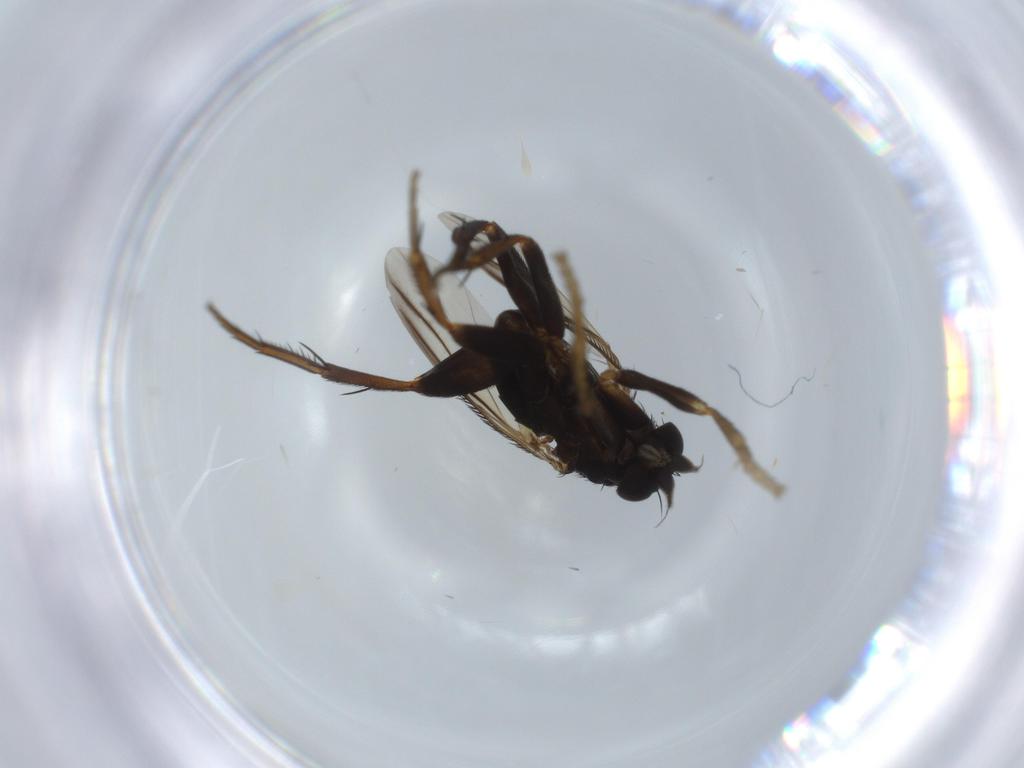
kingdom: Animalia
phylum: Arthropoda
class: Insecta
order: Diptera
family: Phoridae
